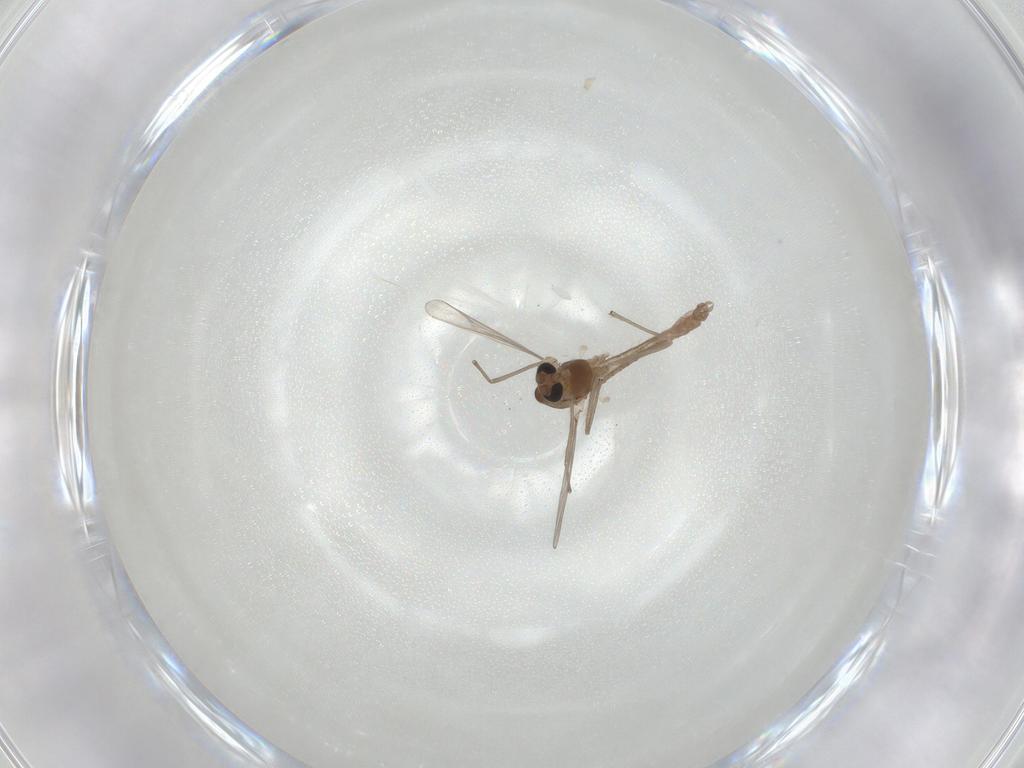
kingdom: Animalia
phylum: Arthropoda
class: Insecta
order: Diptera
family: Chironomidae
